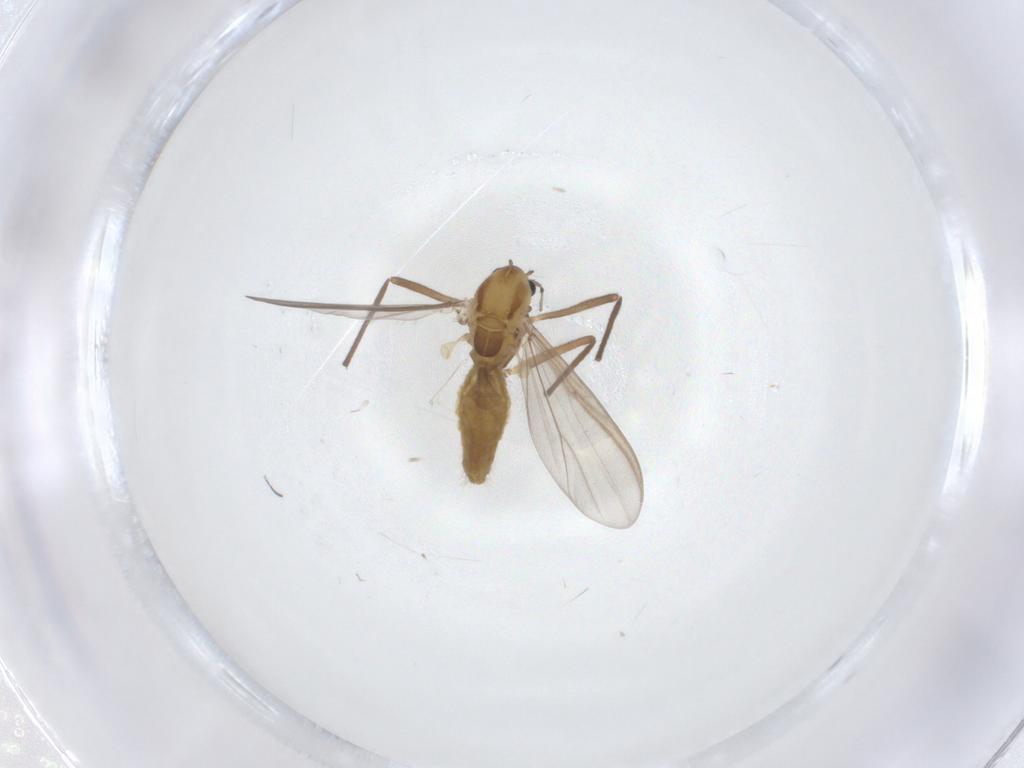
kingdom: Animalia
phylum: Arthropoda
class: Insecta
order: Diptera
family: Chironomidae
